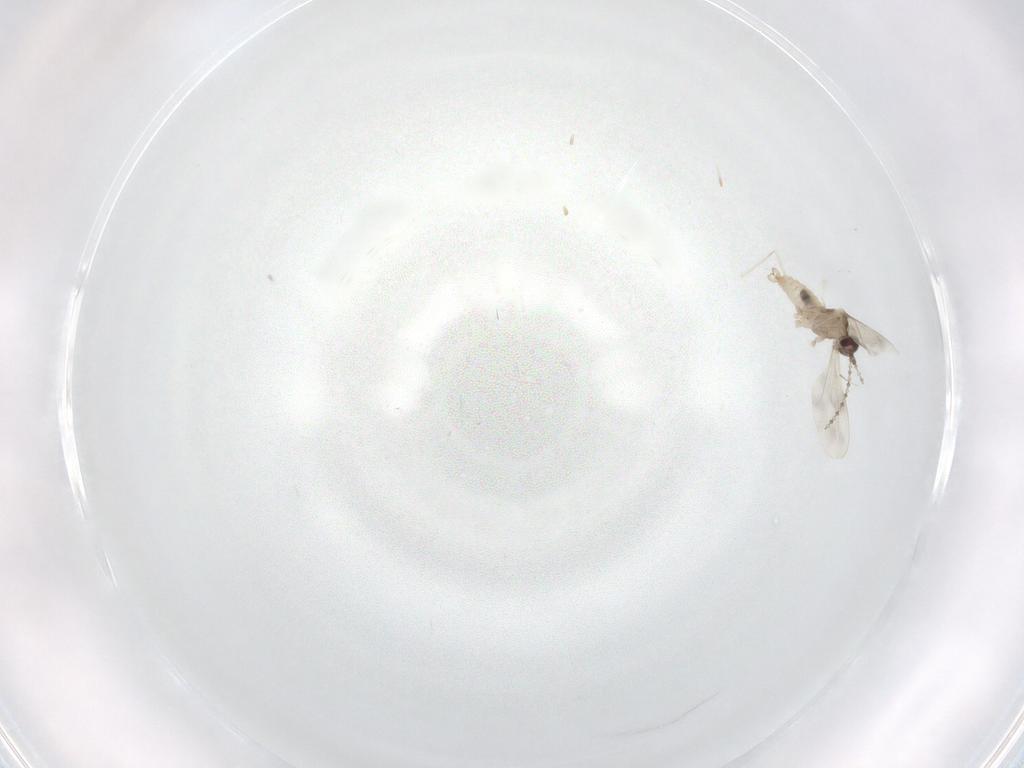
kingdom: Animalia
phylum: Arthropoda
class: Insecta
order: Diptera
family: Cecidomyiidae
